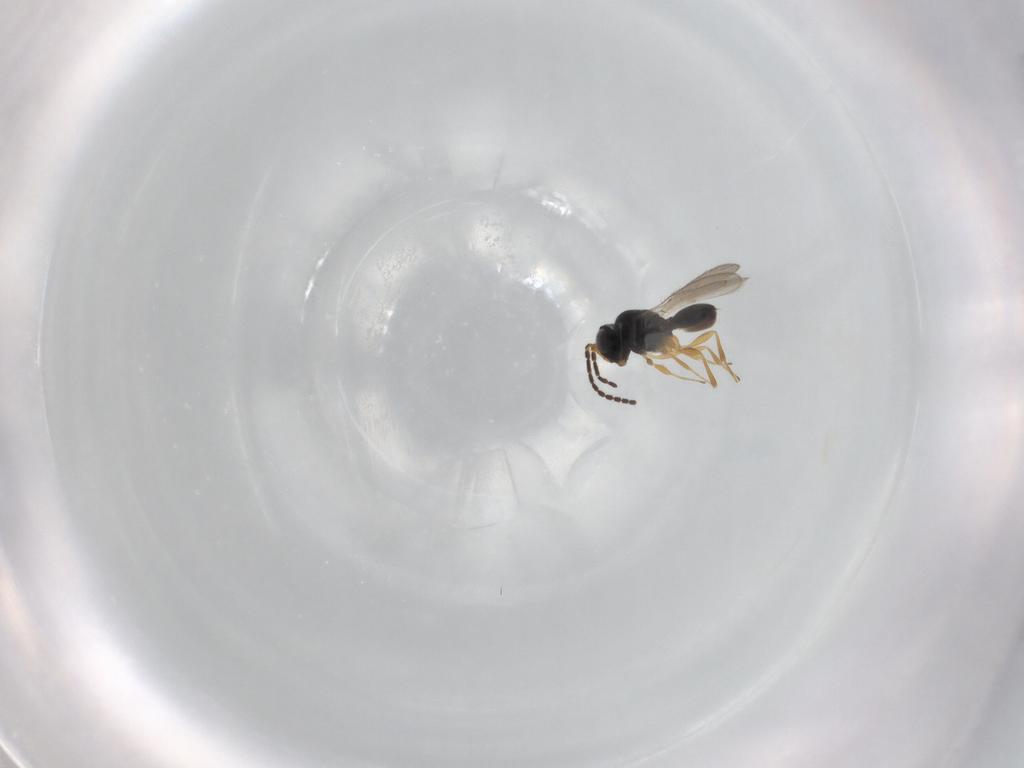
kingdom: Animalia
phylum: Arthropoda
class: Insecta
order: Hymenoptera
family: Scelionidae
